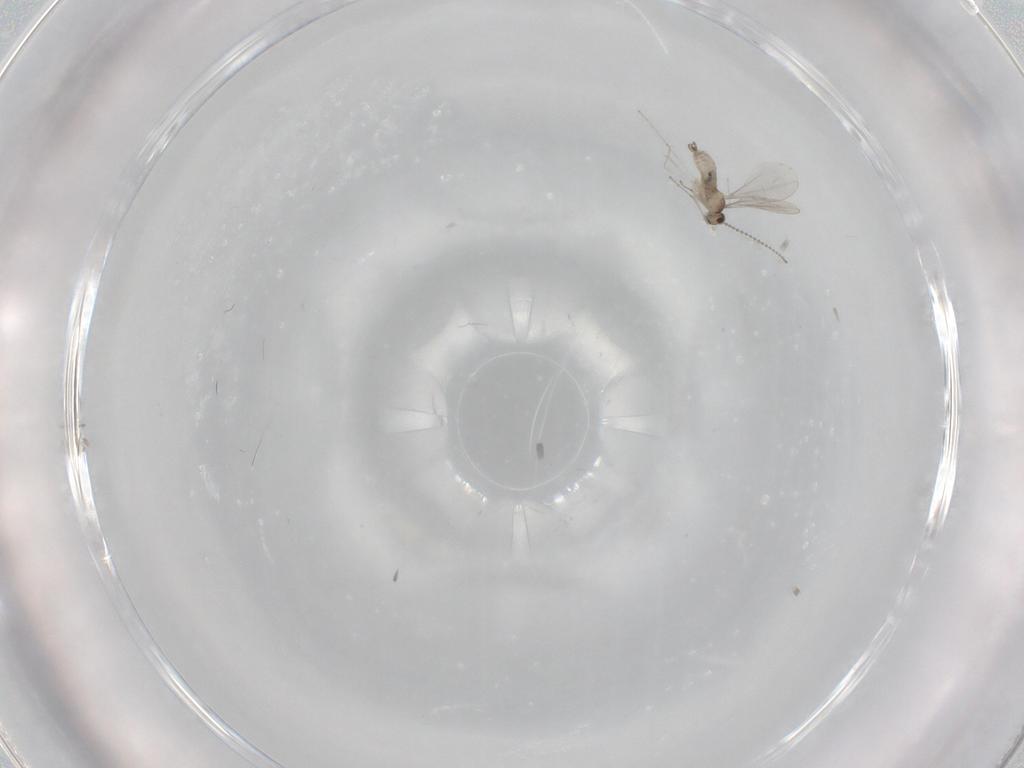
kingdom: Animalia
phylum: Arthropoda
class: Insecta
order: Diptera
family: Cecidomyiidae
